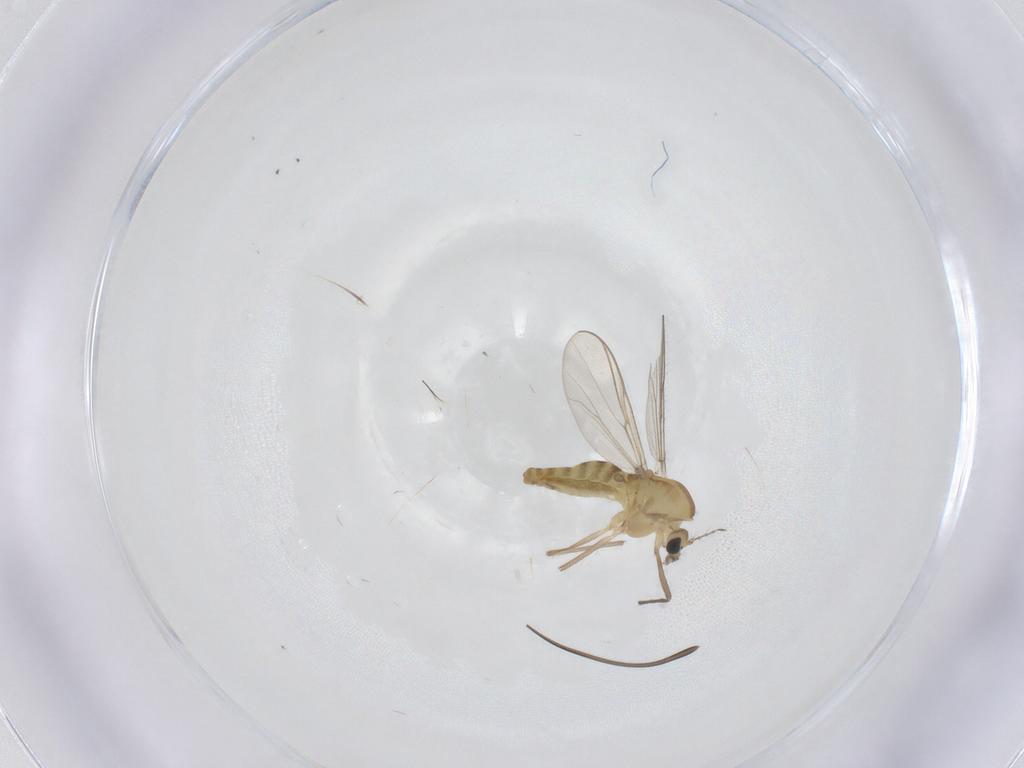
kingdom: Animalia
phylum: Arthropoda
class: Insecta
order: Diptera
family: Chironomidae
